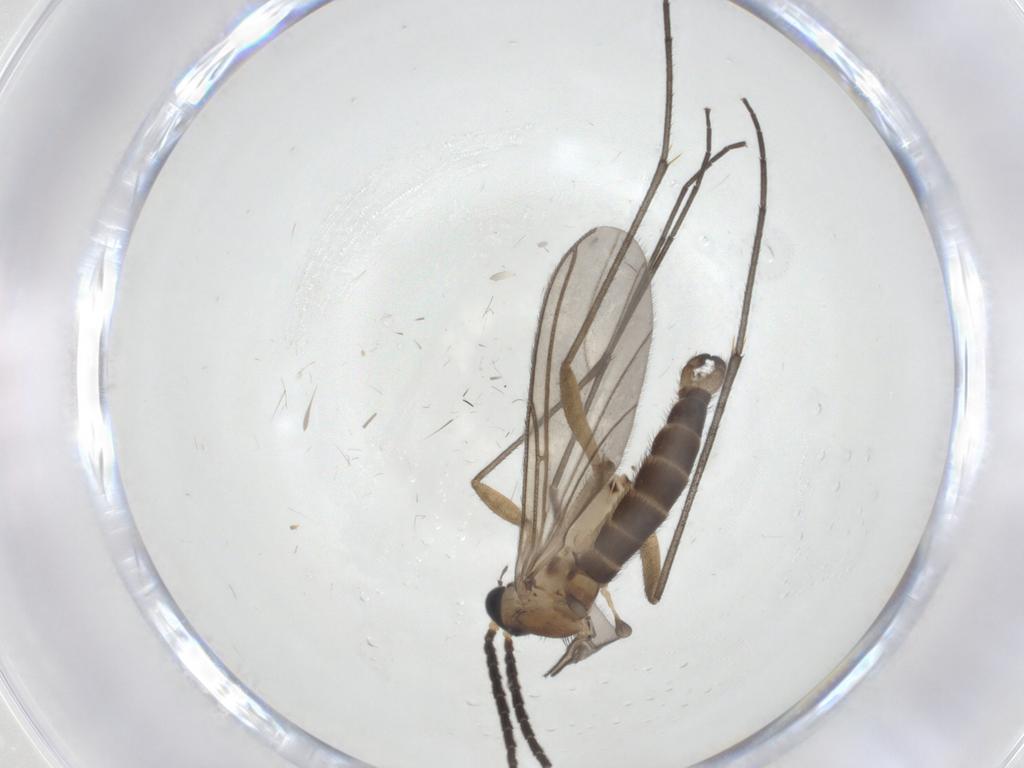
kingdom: Animalia
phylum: Arthropoda
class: Insecta
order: Diptera
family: Sciaridae
